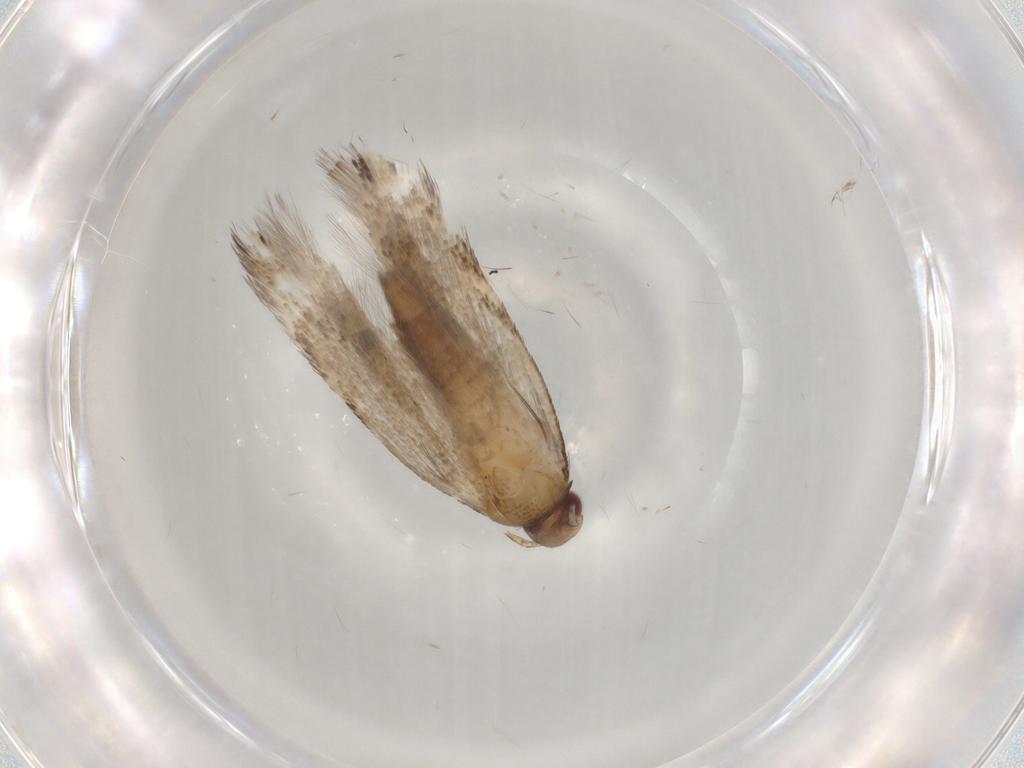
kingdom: Animalia
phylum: Arthropoda
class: Insecta
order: Lepidoptera
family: Gelechiidae
